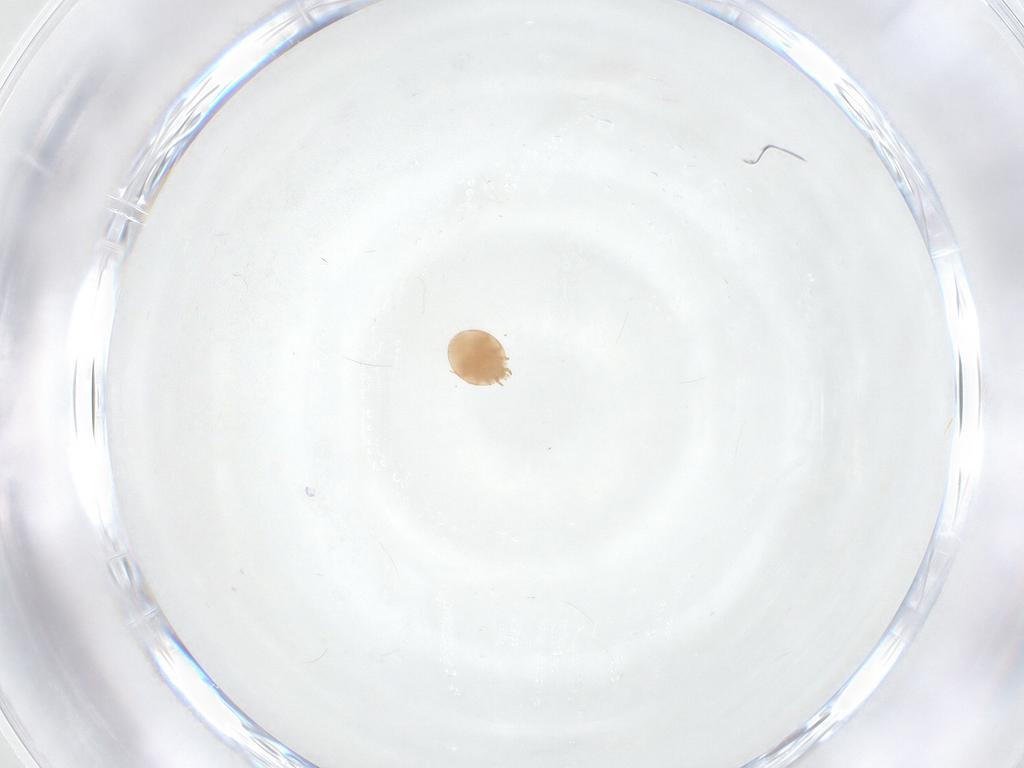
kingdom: Animalia
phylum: Arthropoda
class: Arachnida
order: Mesostigmata
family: Trematuridae
